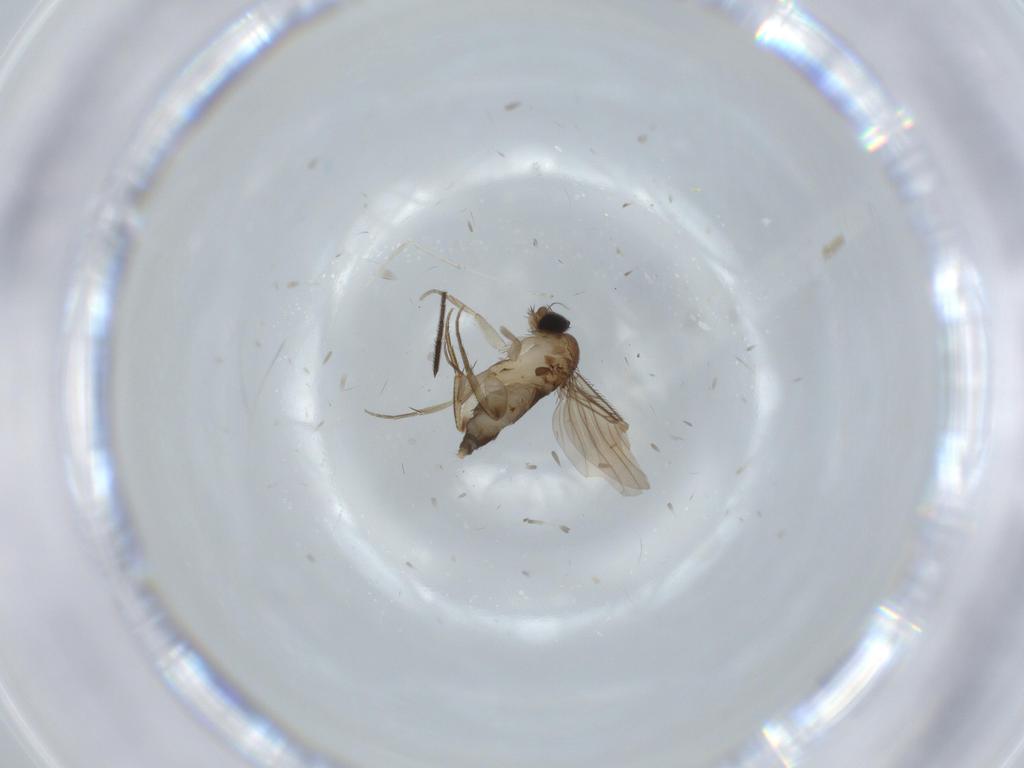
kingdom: Animalia
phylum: Arthropoda
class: Insecta
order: Diptera
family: Phoridae
